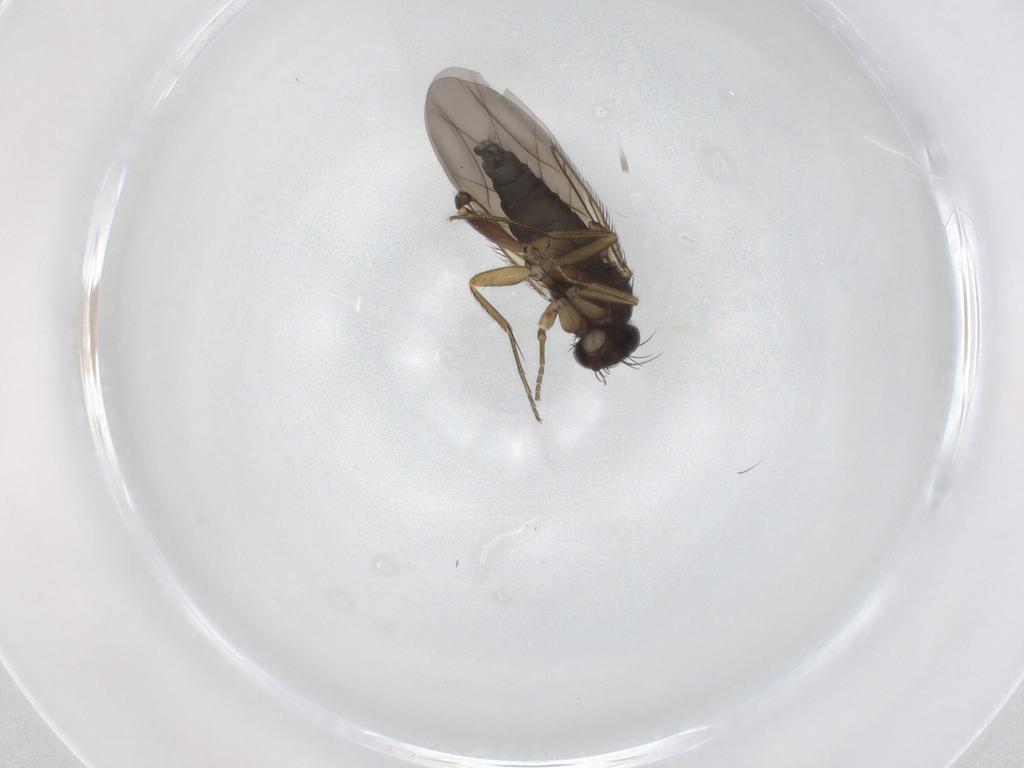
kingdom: Animalia
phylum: Arthropoda
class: Insecta
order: Diptera
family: Phoridae
